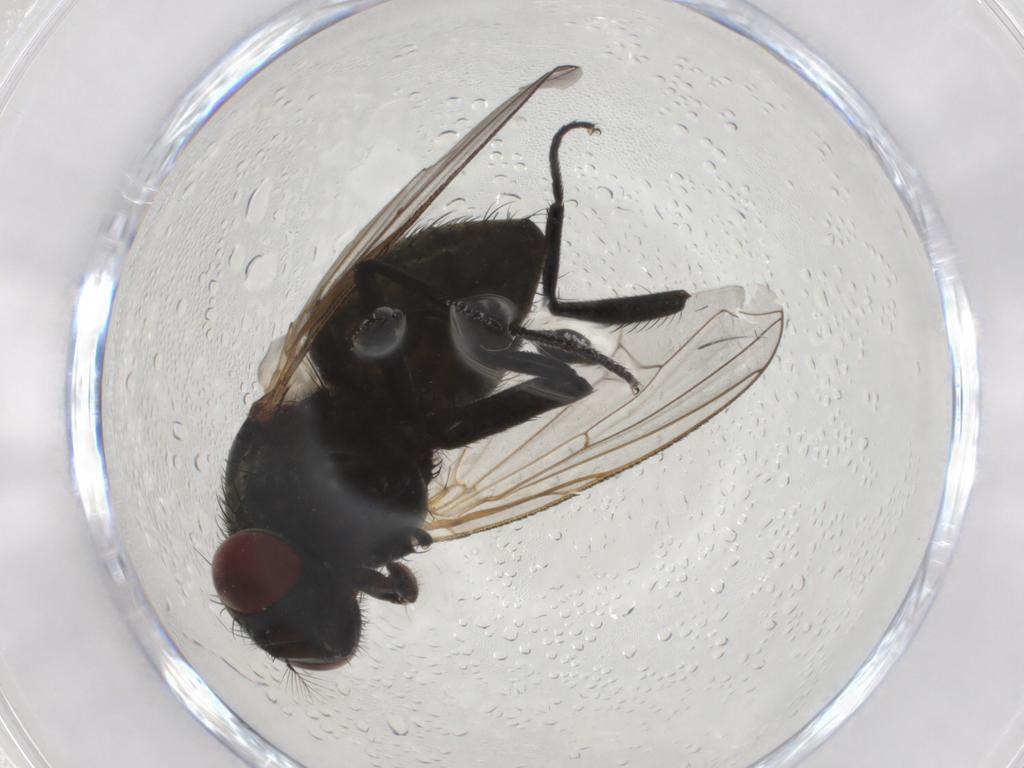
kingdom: Animalia
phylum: Arthropoda
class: Insecta
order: Diptera
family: Muscidae
